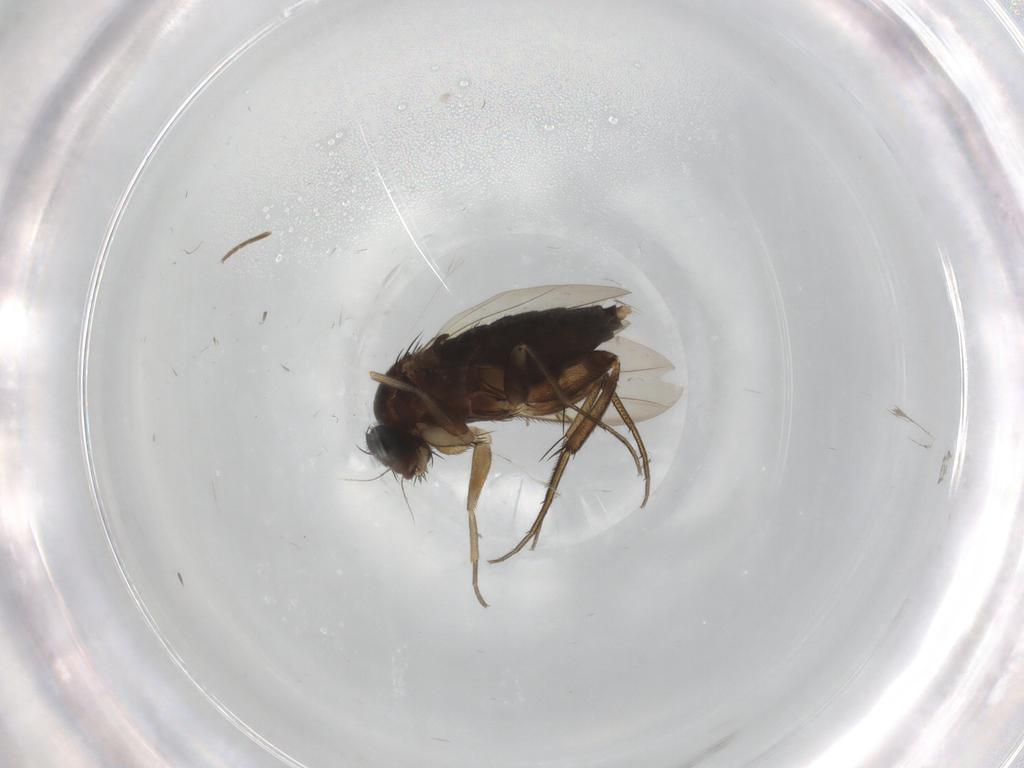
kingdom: Animalia
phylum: Arthropoda
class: Insecta
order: Diptera
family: Phoridae
